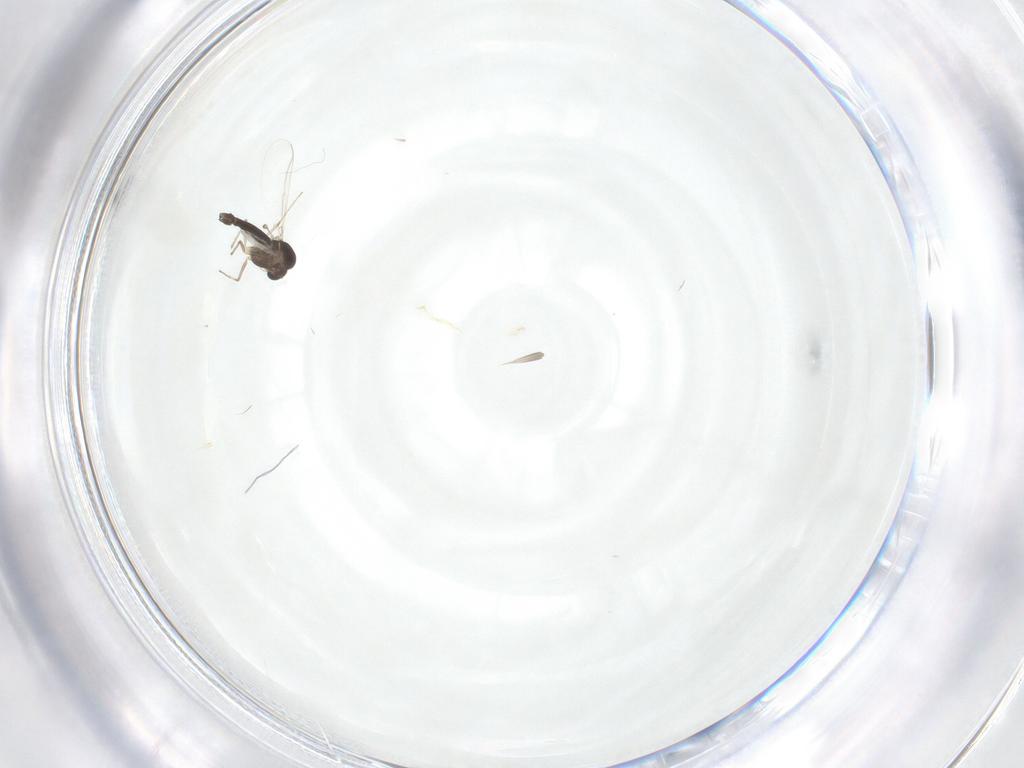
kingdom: Animalia
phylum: Arthropoda
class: Insecta
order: Diptera
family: Chironomidae
